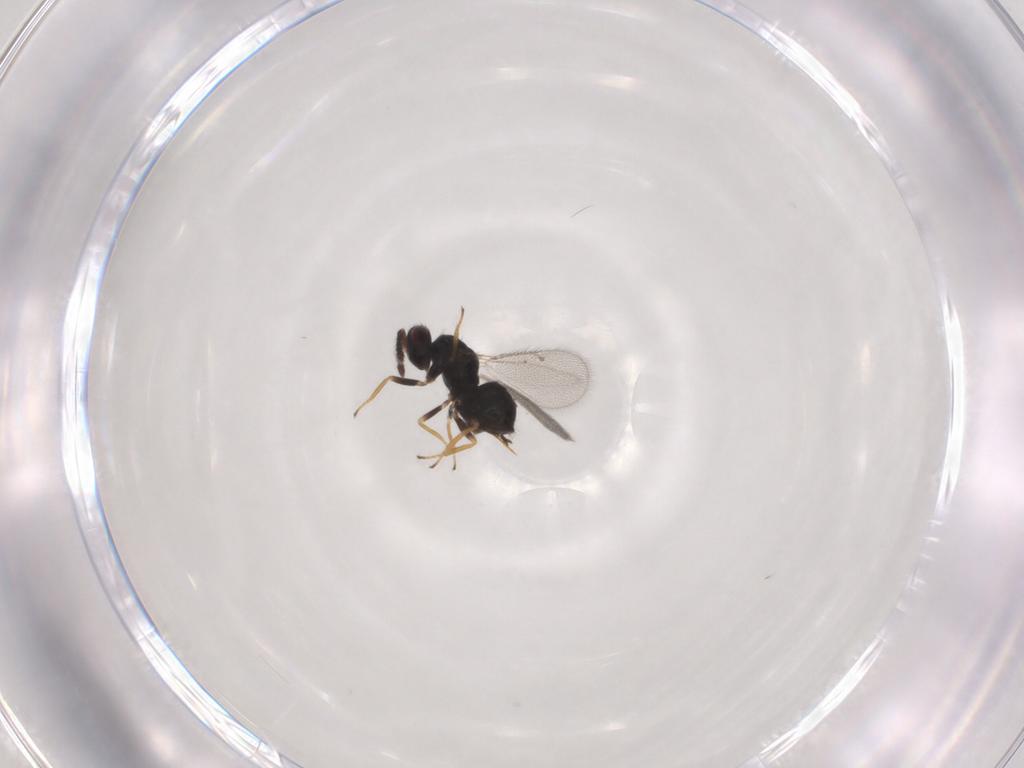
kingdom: Animalia
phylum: Arthropoda
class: Insecta
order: Hymenoptera
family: Eulophidae
